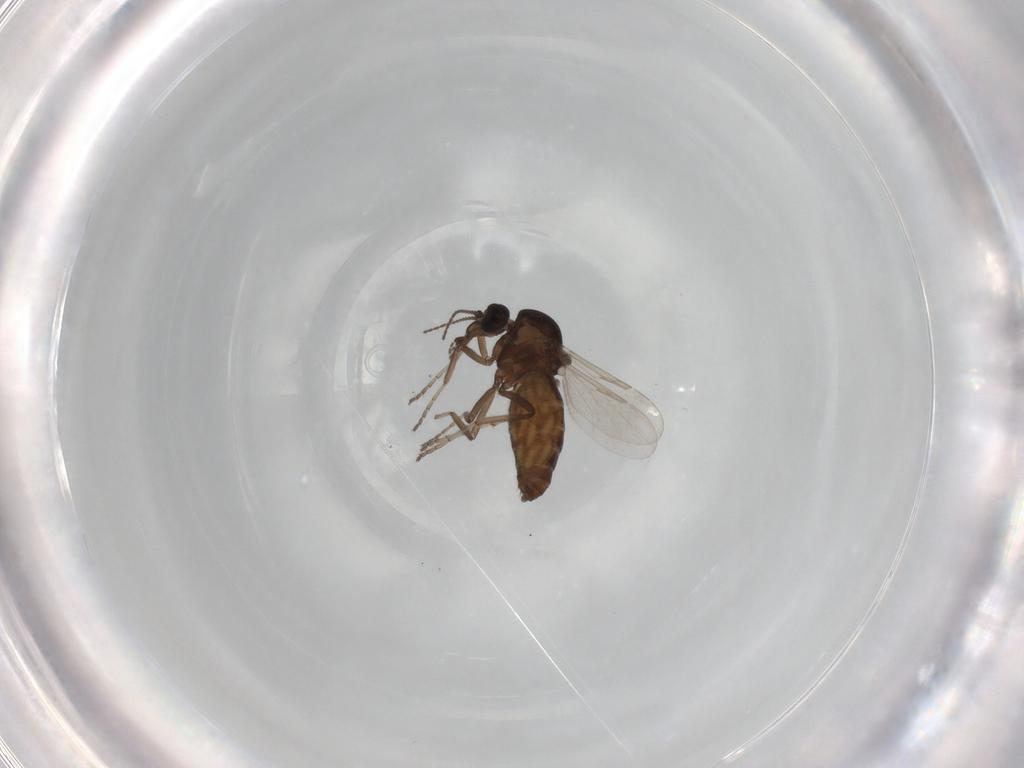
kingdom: Animalia
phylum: Arthropoda
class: Insecta
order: Diptera
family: Ceratopogonidae
